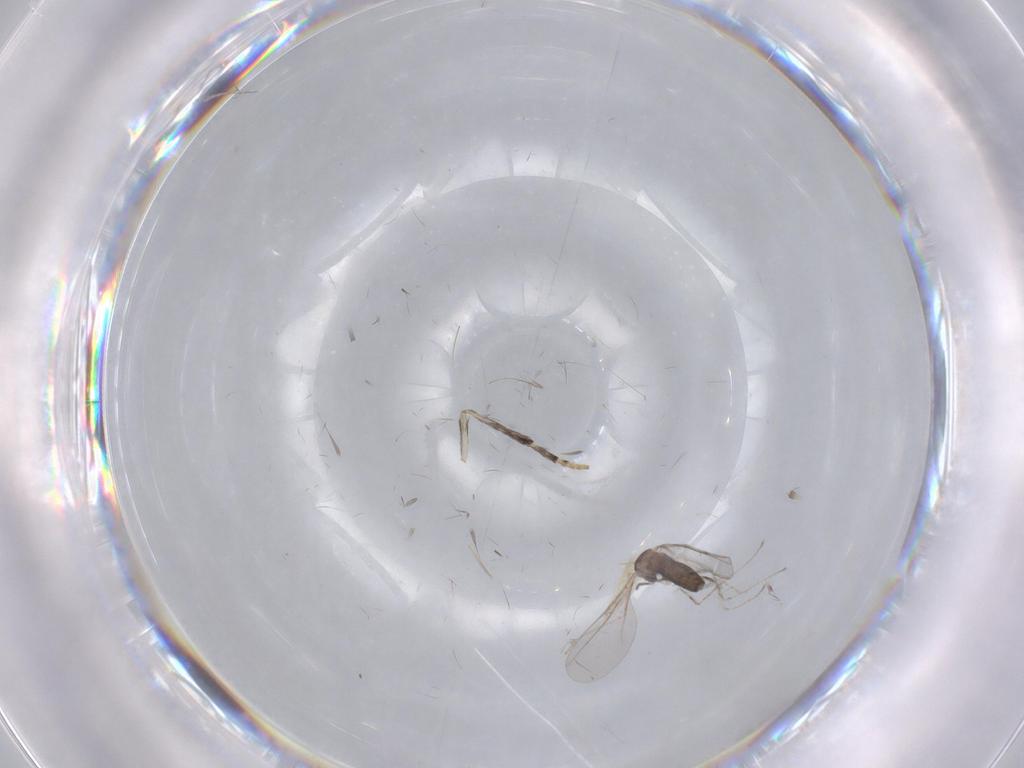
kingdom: Animalia
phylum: Arthropoda
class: Insecta
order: Diptera
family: Cecidomyiidae
